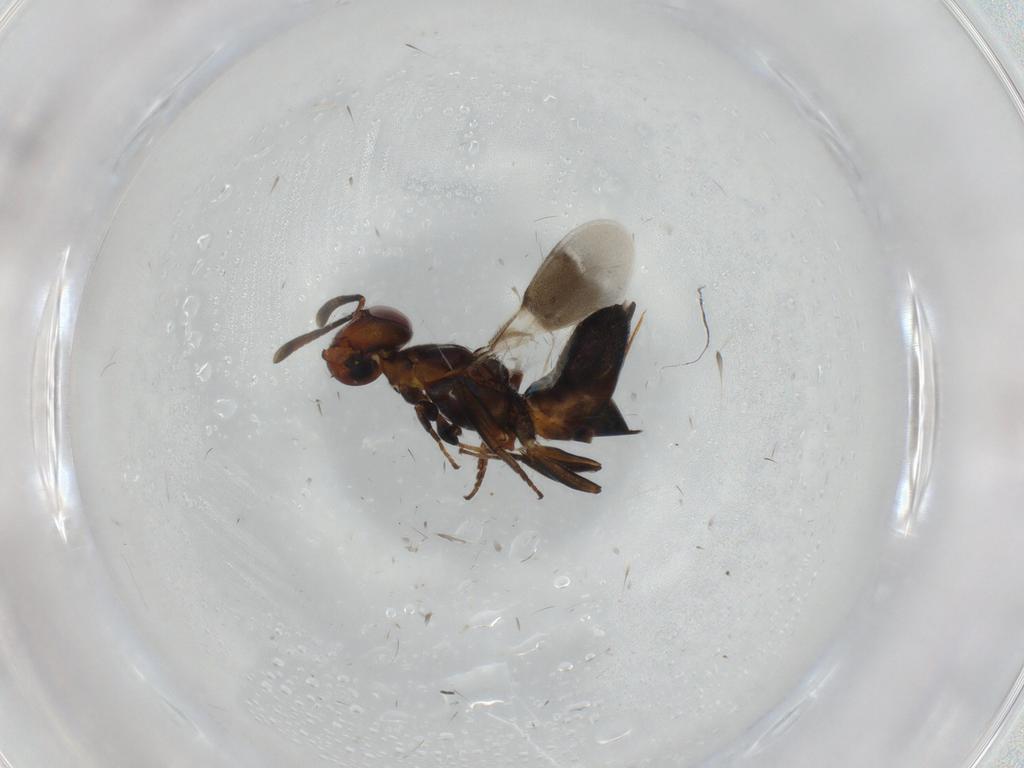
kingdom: Animalia
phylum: Arthropoda
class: Insecta
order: Hymenoptera
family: Eupelmidae
